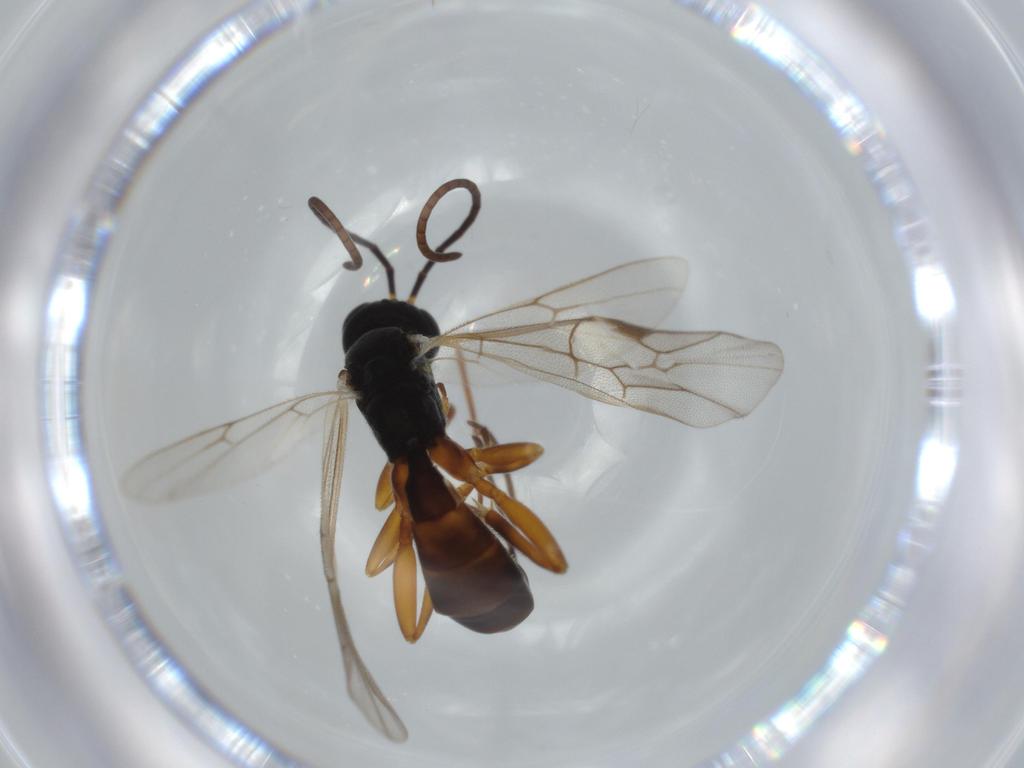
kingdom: Animalia
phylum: Arthropoda
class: Insecta
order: Hymenoptera
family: Ichneumonidae
